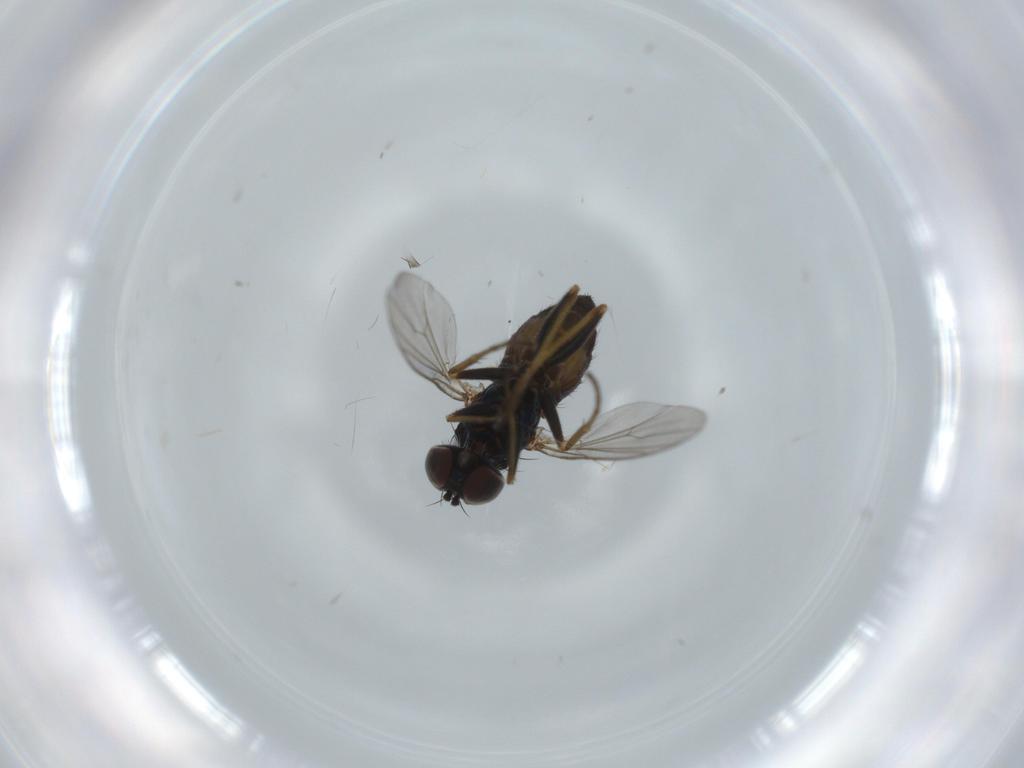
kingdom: Animalia
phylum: Arthropoda
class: Insecta
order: Diptera
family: Dolichopodidae
